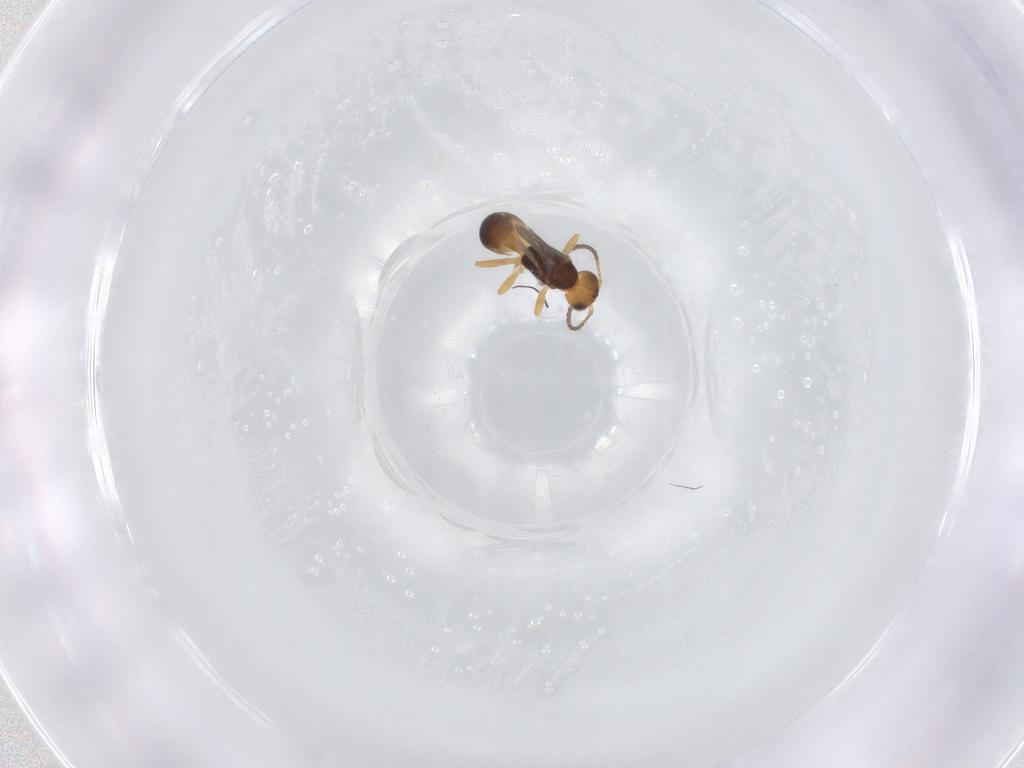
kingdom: Animalia
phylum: Arthropoda
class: Insecta
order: Hymenoptera
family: Braconidae
